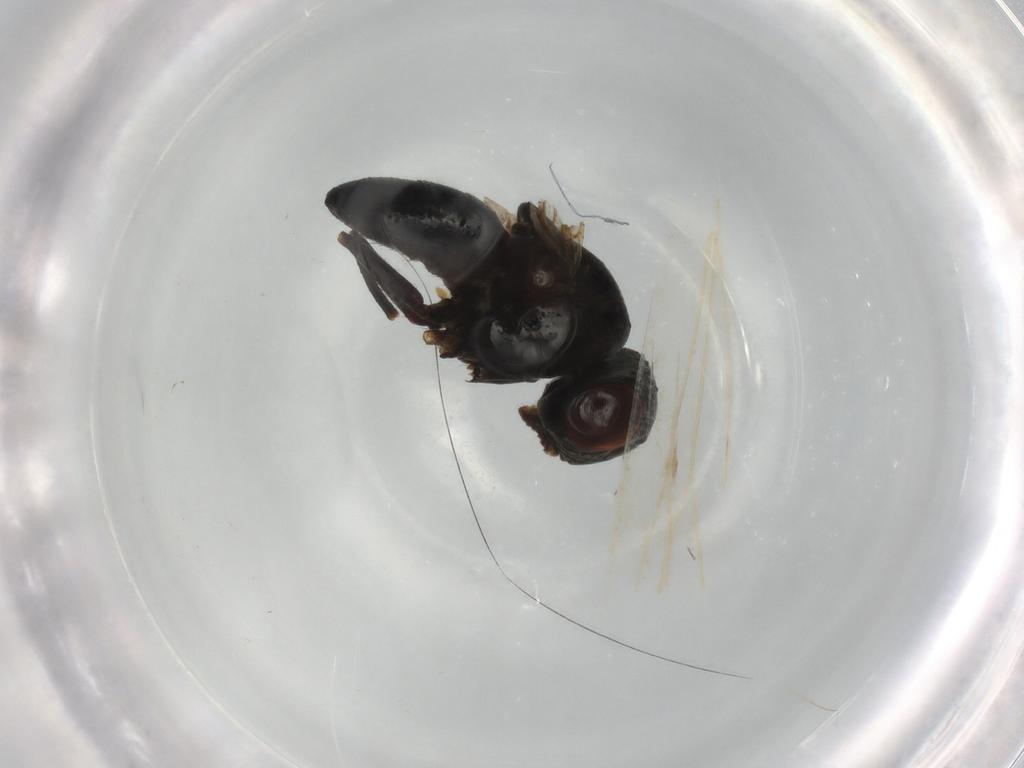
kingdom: Animalia
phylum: Arthropoda
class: Insecta
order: Diptera
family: Ephydridae
